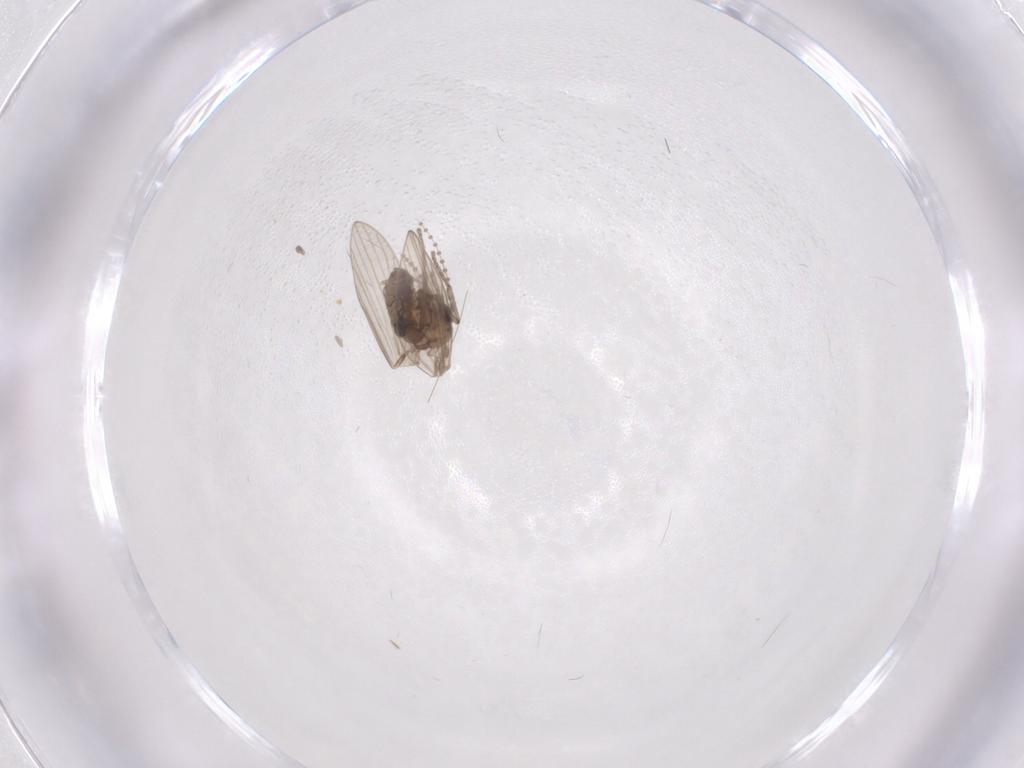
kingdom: Animalia
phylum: Arthropoda
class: Insecta
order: Diptera
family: Psychodidae
